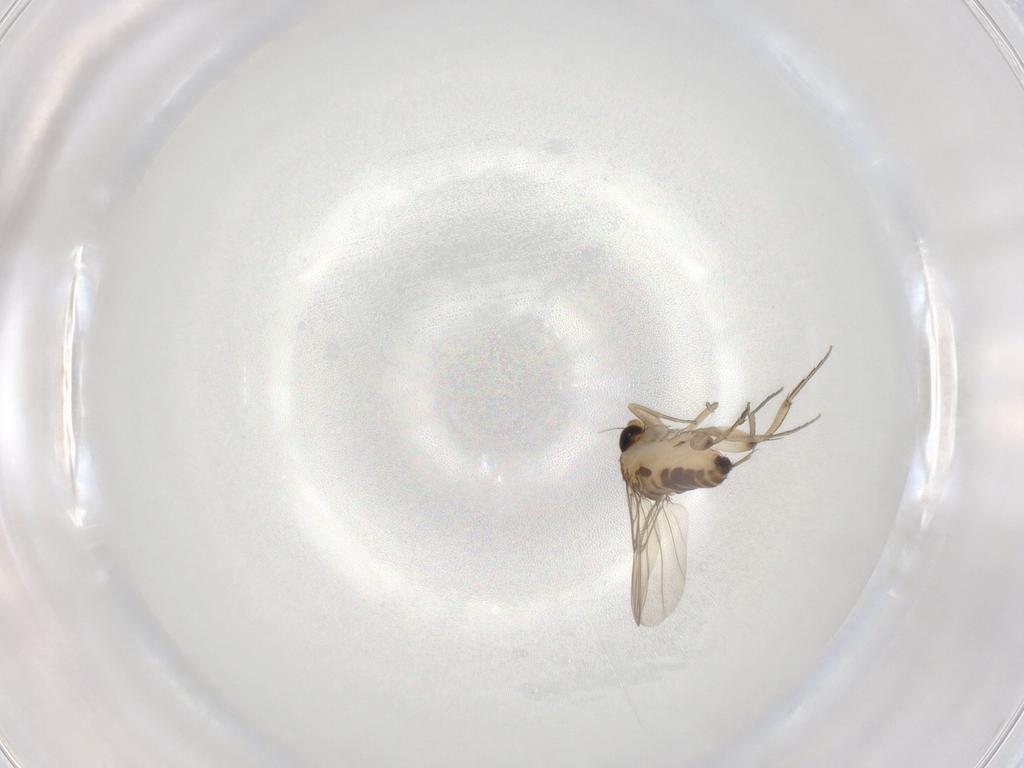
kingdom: Animalia
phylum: Arthropoda
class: Insecta
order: Diptera
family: Phoridae
